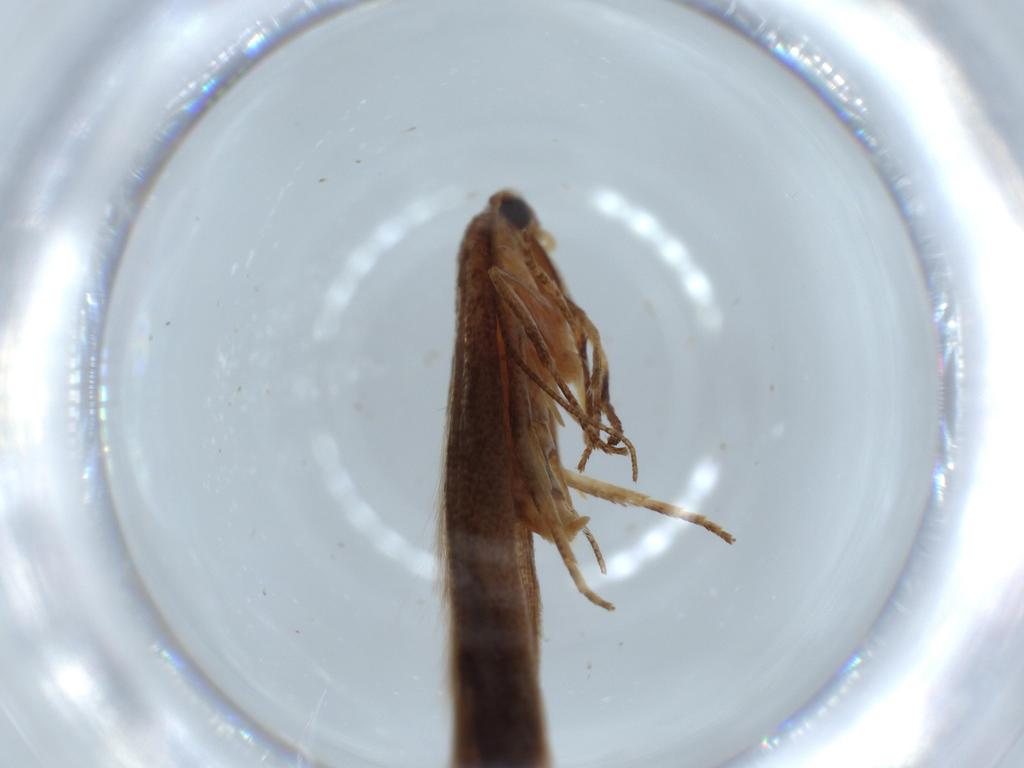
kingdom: Animalia
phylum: Arthropoda
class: Insecta
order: Lepidoptera
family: Stathmopodidae
